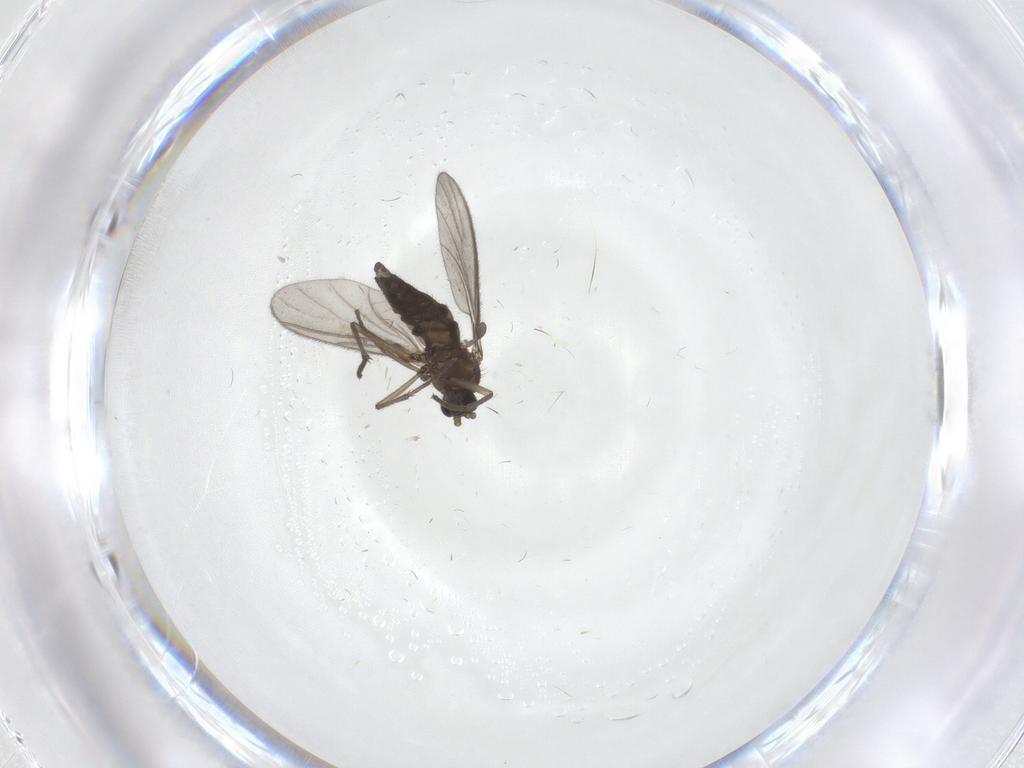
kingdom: Animalia
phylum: Arthropoda
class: Insecta
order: Diptera
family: Sciaridae
